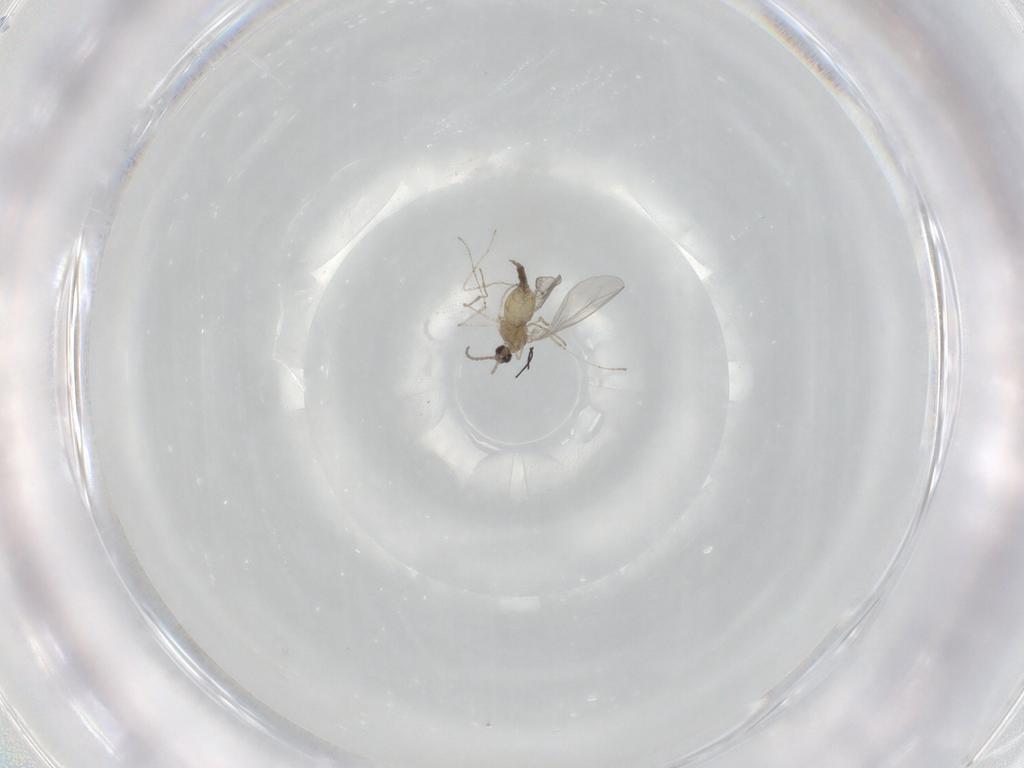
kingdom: Animalia
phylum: Arthropoda
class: Insecta
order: Diptera
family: Cecidomyiidae
